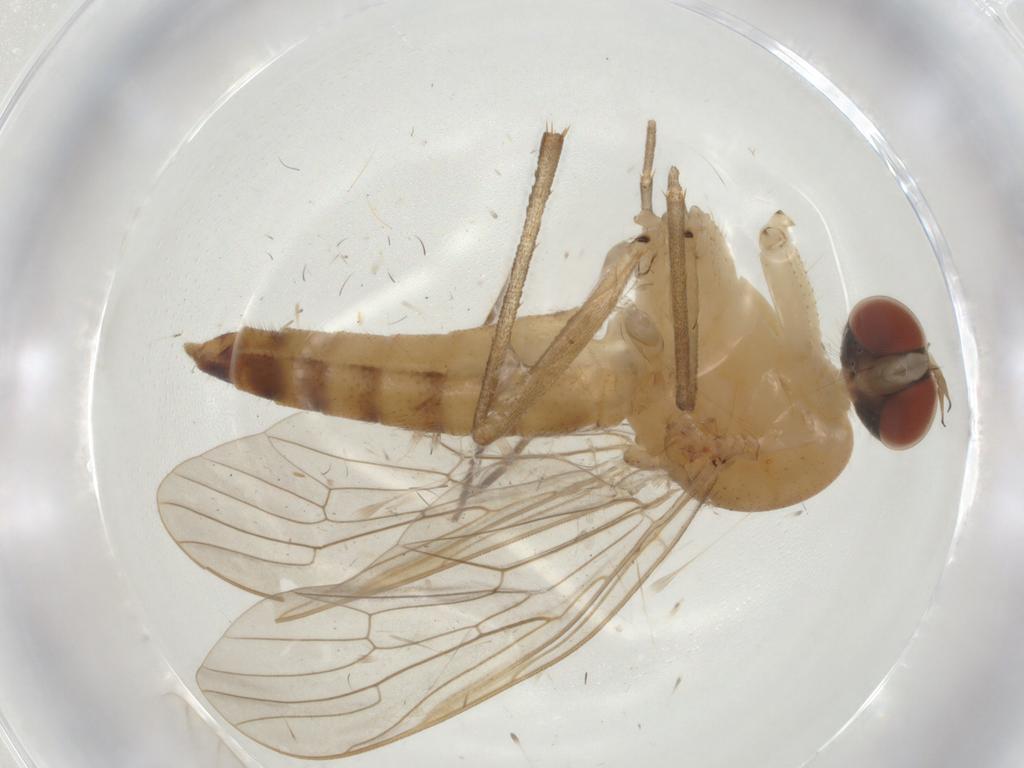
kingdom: Animalia
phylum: Arthropoda
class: Insecta
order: Diptera
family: Apsilocephalidae
